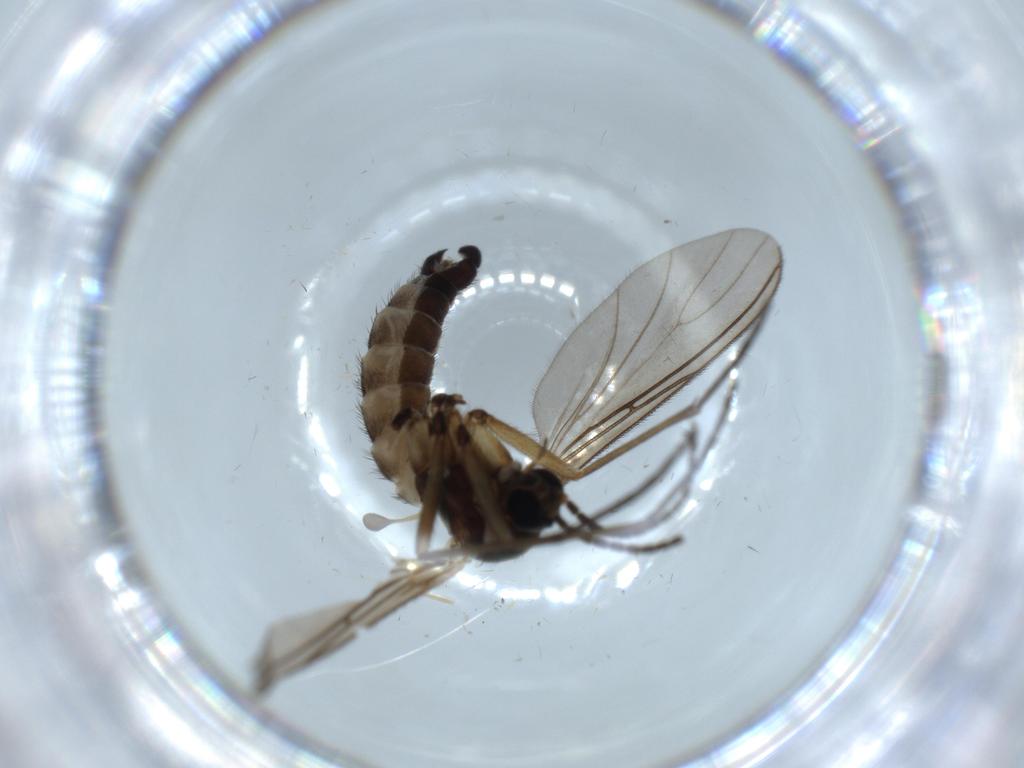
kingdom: Animalia
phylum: Arthropoda
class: Insecta
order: Diptera
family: Sciaridae
